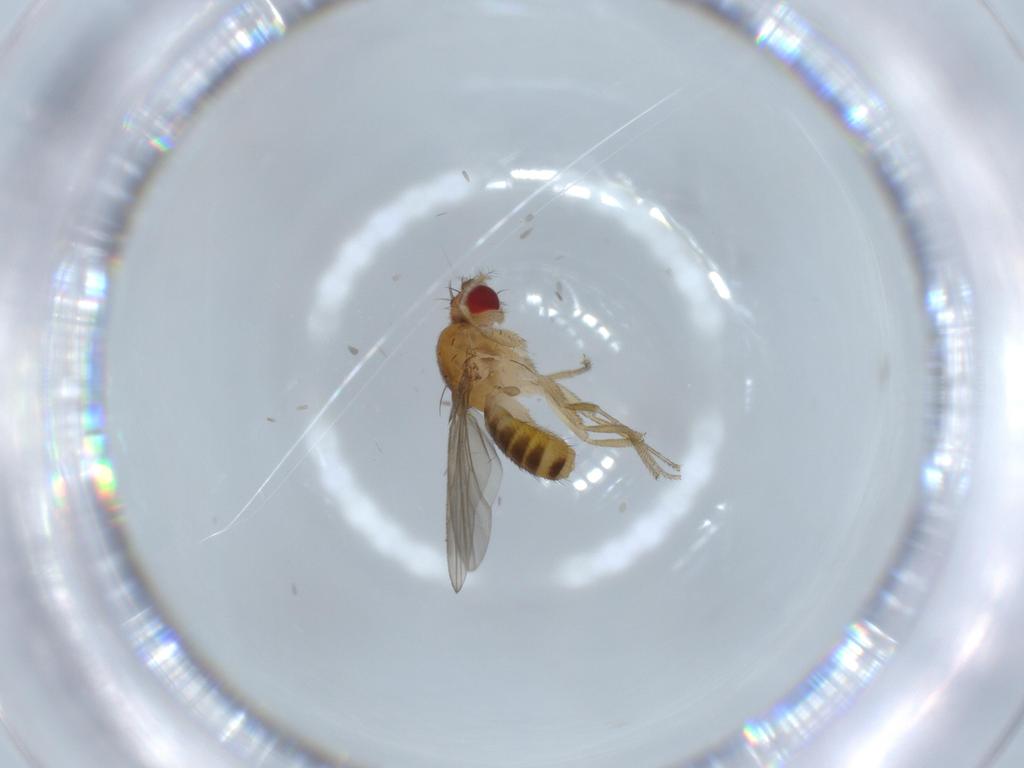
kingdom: Animalia
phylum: Arthropoda
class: Insecta
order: Diptera
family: Drosophilidae
